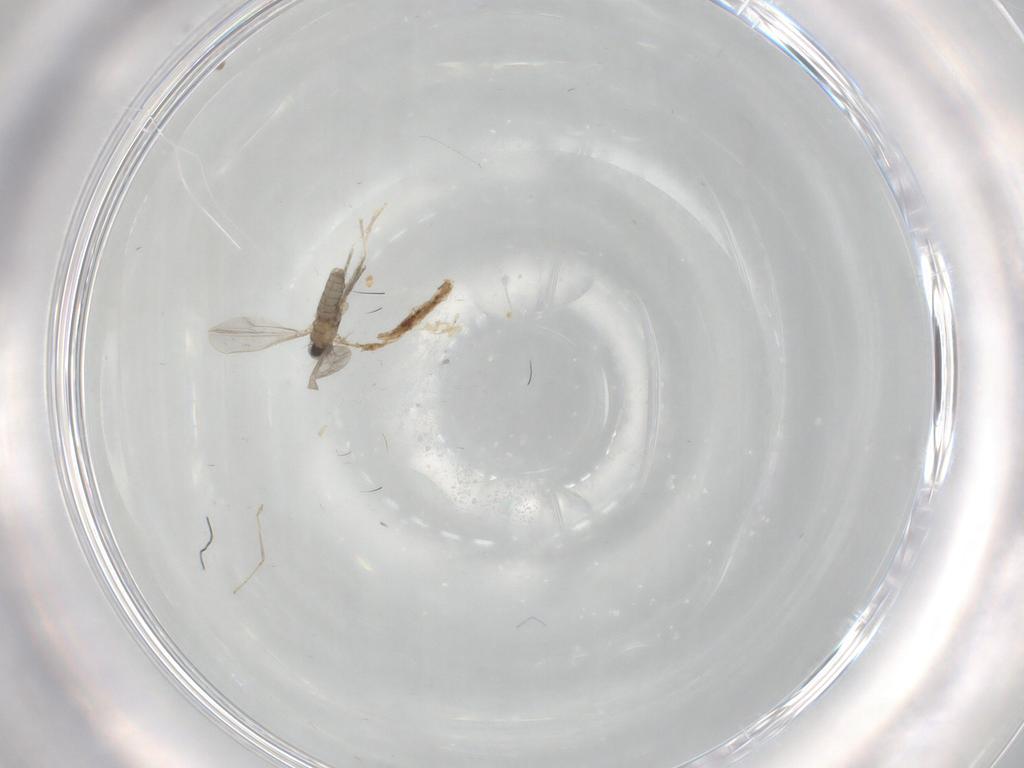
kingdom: Animalia
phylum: Arthropoda
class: Insecta
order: Diptera
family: Cecidomyiidae
